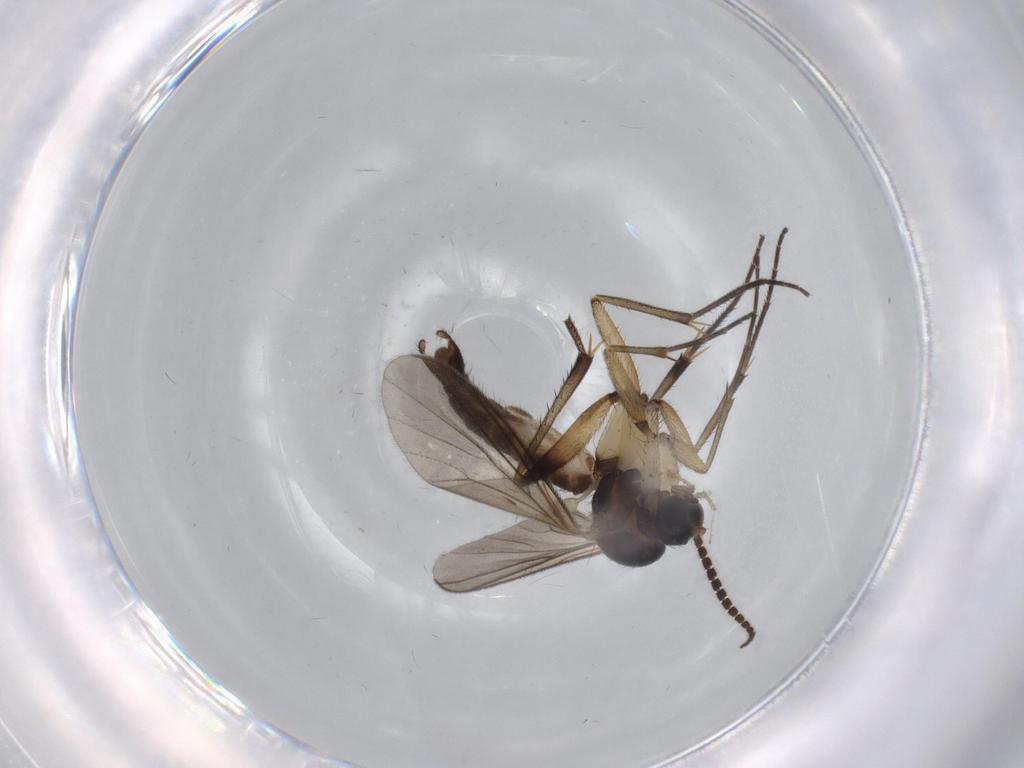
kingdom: Animalia
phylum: Arthropoda
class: Insecta
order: Diptera
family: Mycetophilidae
